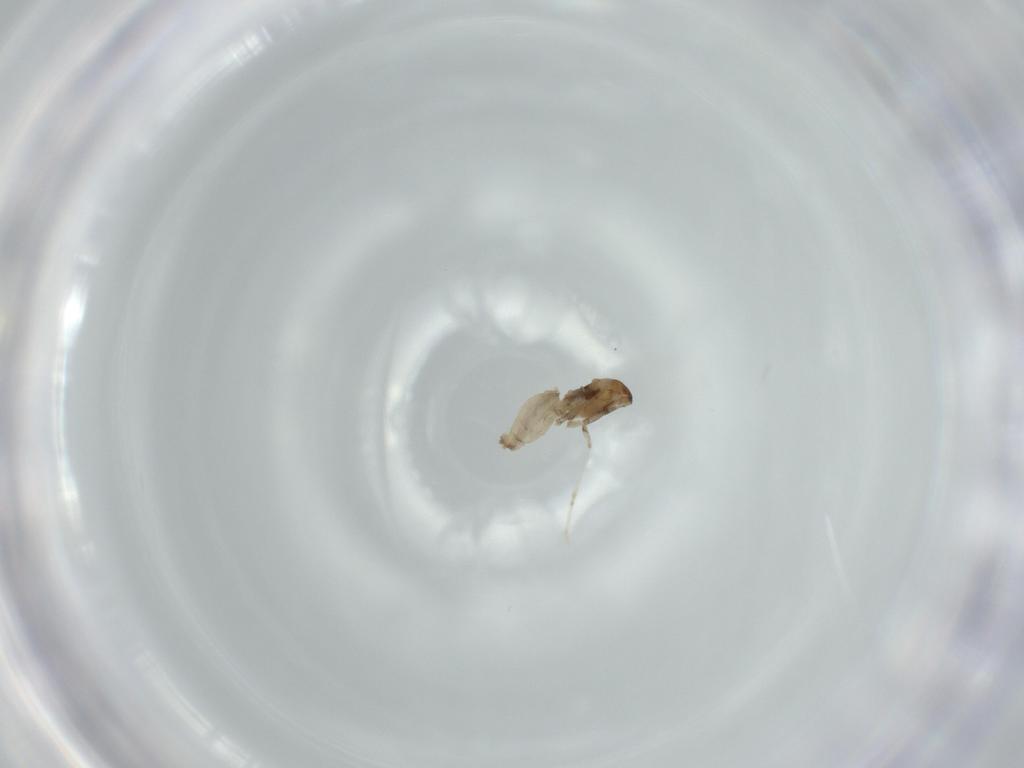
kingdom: Animalia
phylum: Arthropoda
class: Insecta
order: Diptera
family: Cecidomyiidae
